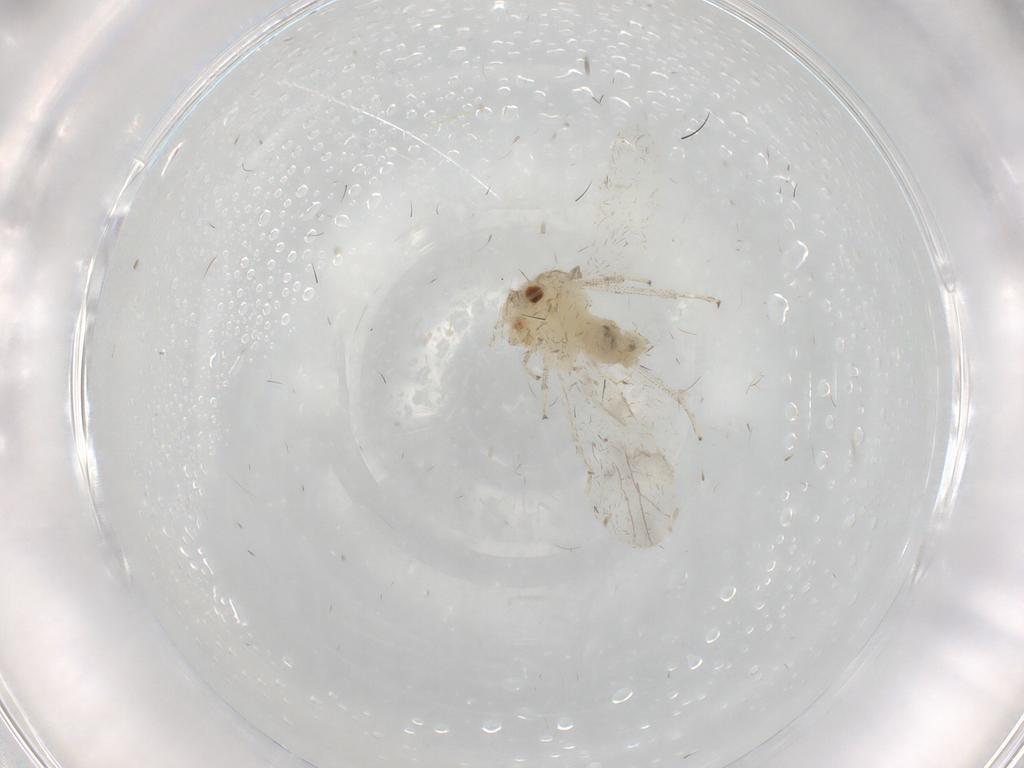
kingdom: Animalia
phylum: Arthropoda
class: Insecta
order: Psocodea
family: Caeciliusidae
